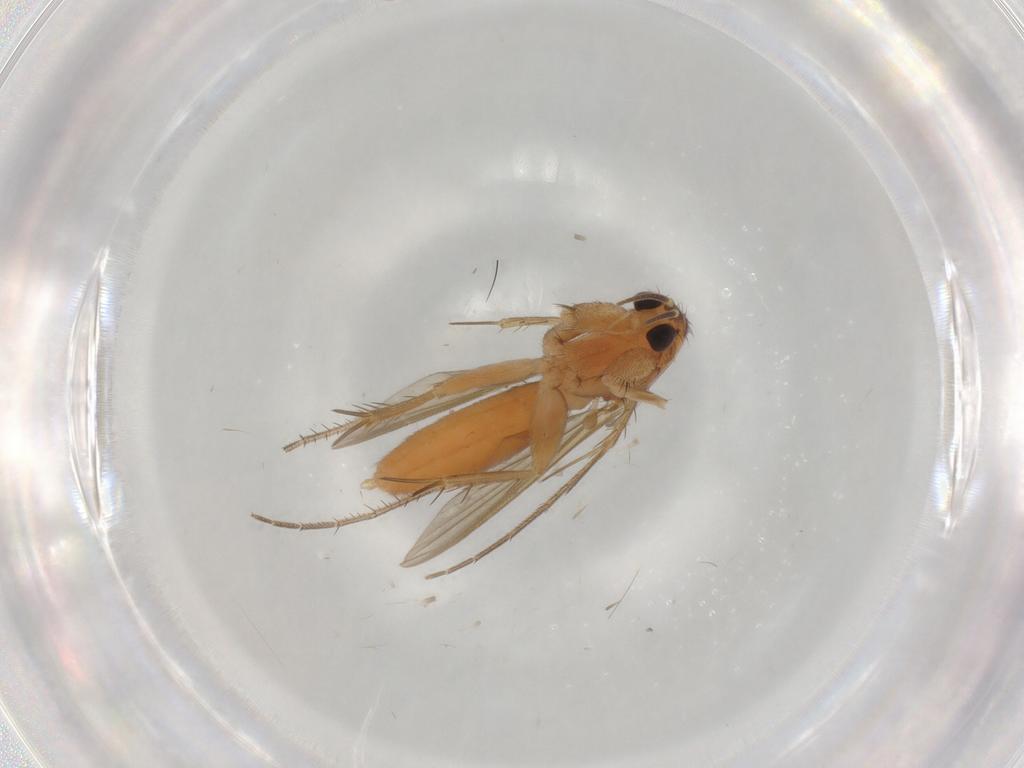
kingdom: Animalia
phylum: Arthropoda
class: Insecta
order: Diptera
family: Mycetophilidae
